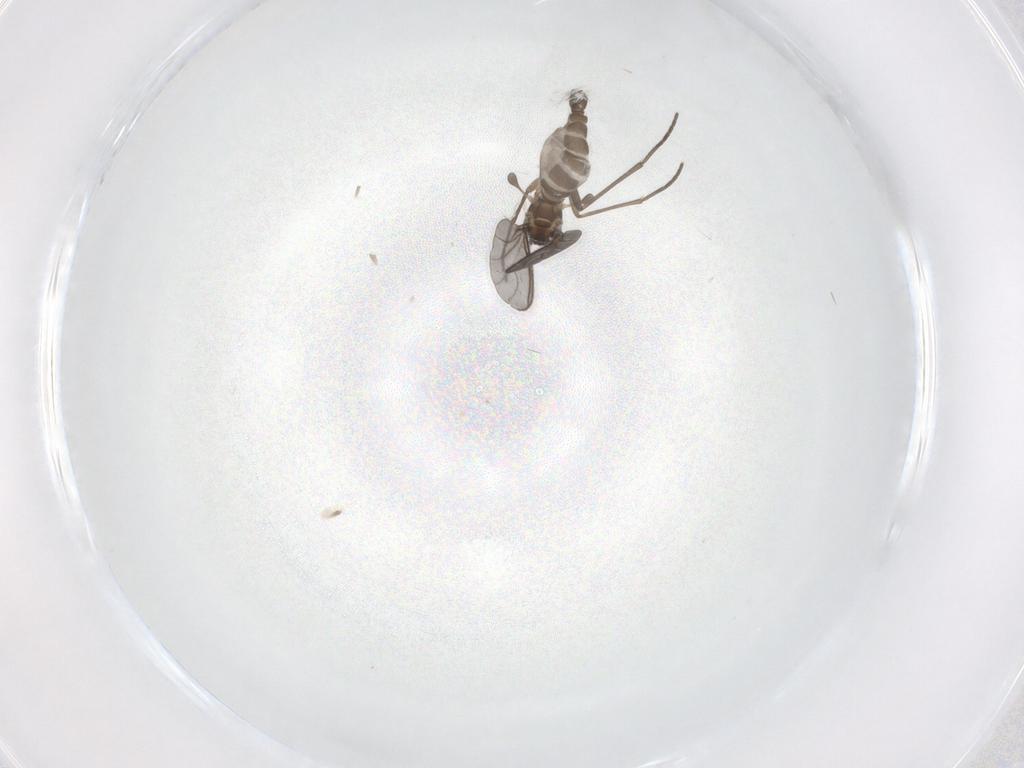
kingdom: Animalia
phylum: Arthropoda
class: Insecta
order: Diptera
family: Sciaridae
